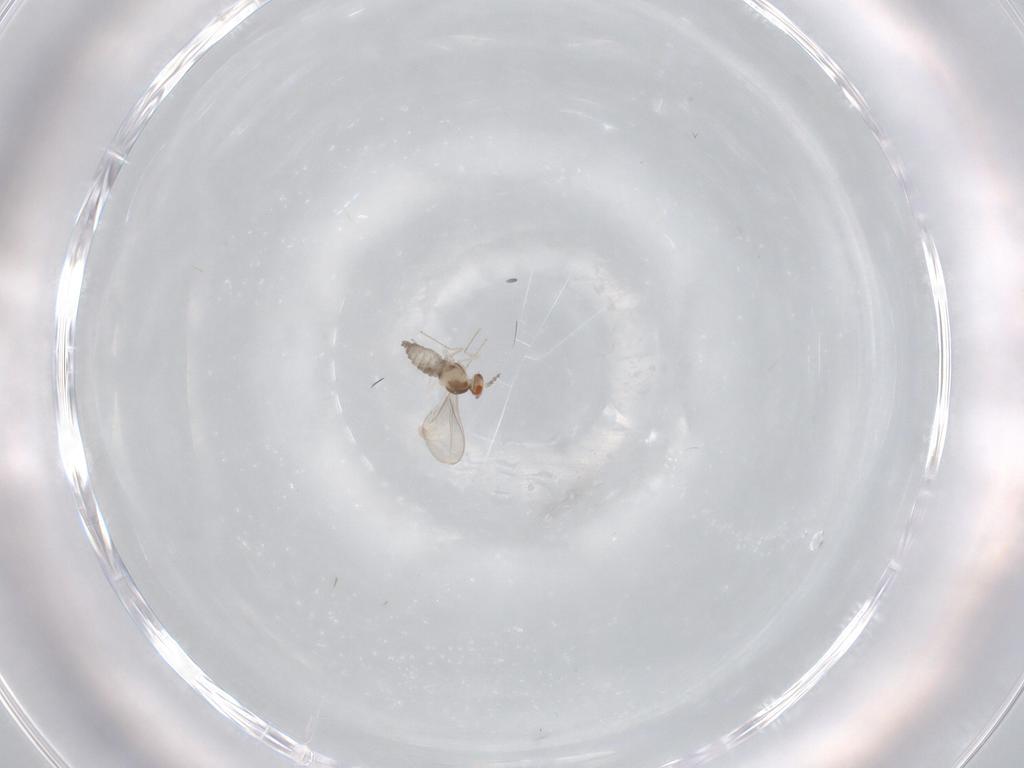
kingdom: Animalia
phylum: Arthropoda
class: Insecta
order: Diptera
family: Cecidomyiidae
